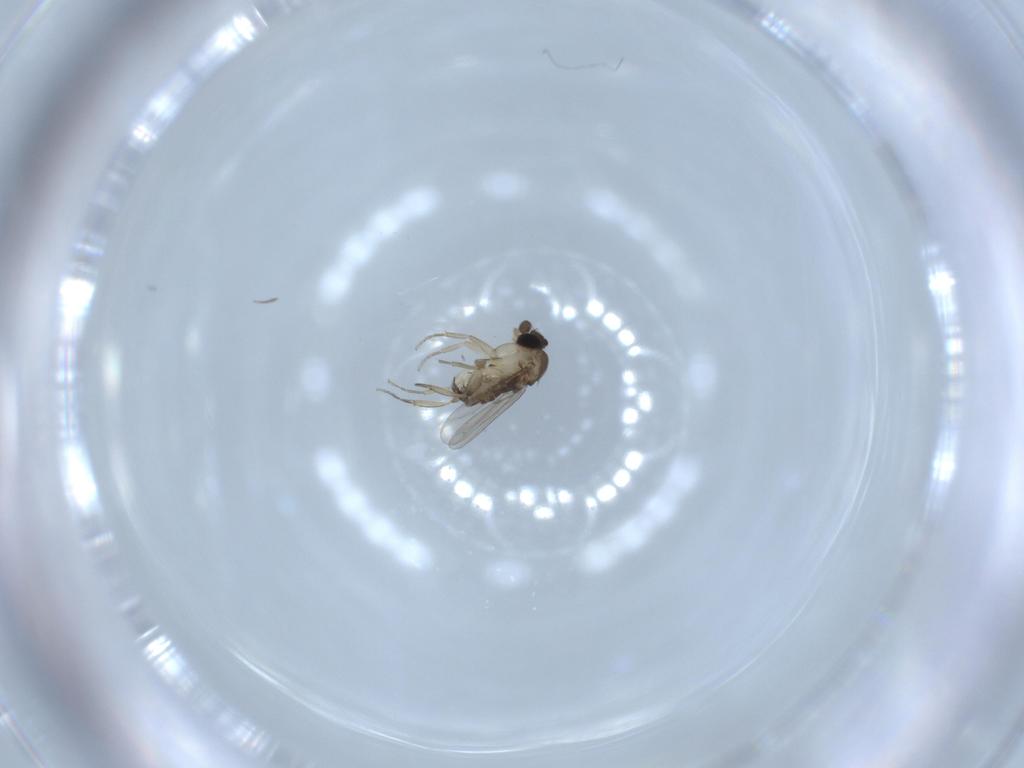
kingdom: Animalia
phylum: Arthropoda
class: Insecta
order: Diptera
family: Phoridae
